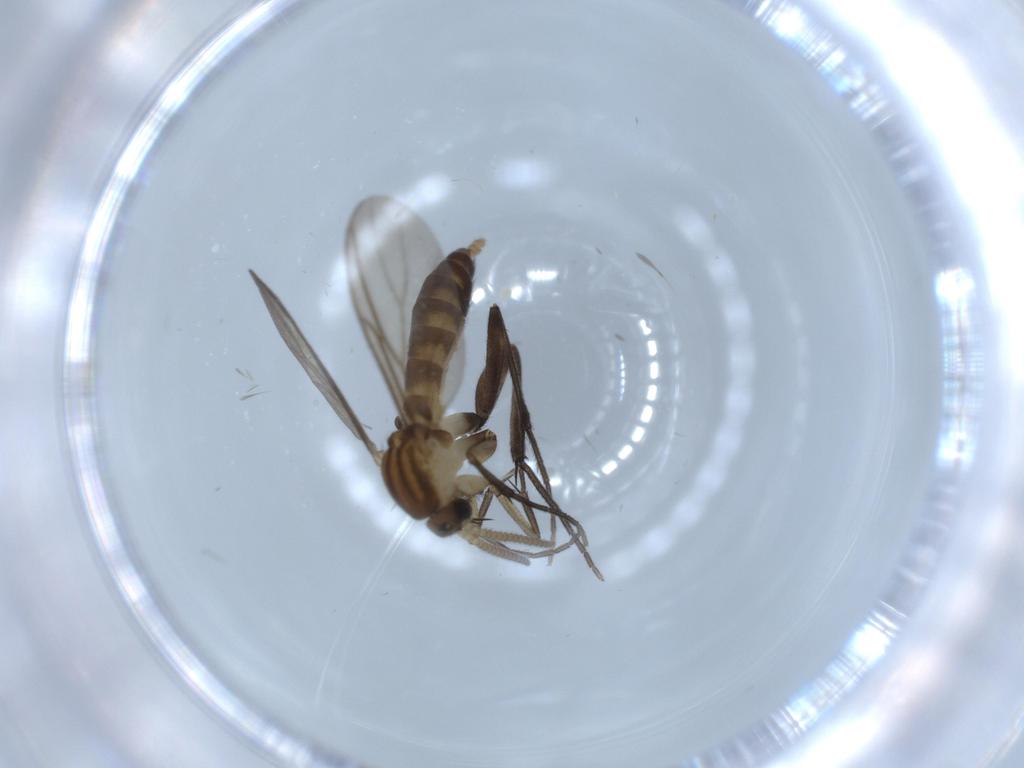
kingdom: Animalia
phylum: Arthropoda
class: Insecta
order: Diptera
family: Mycetophilidae
